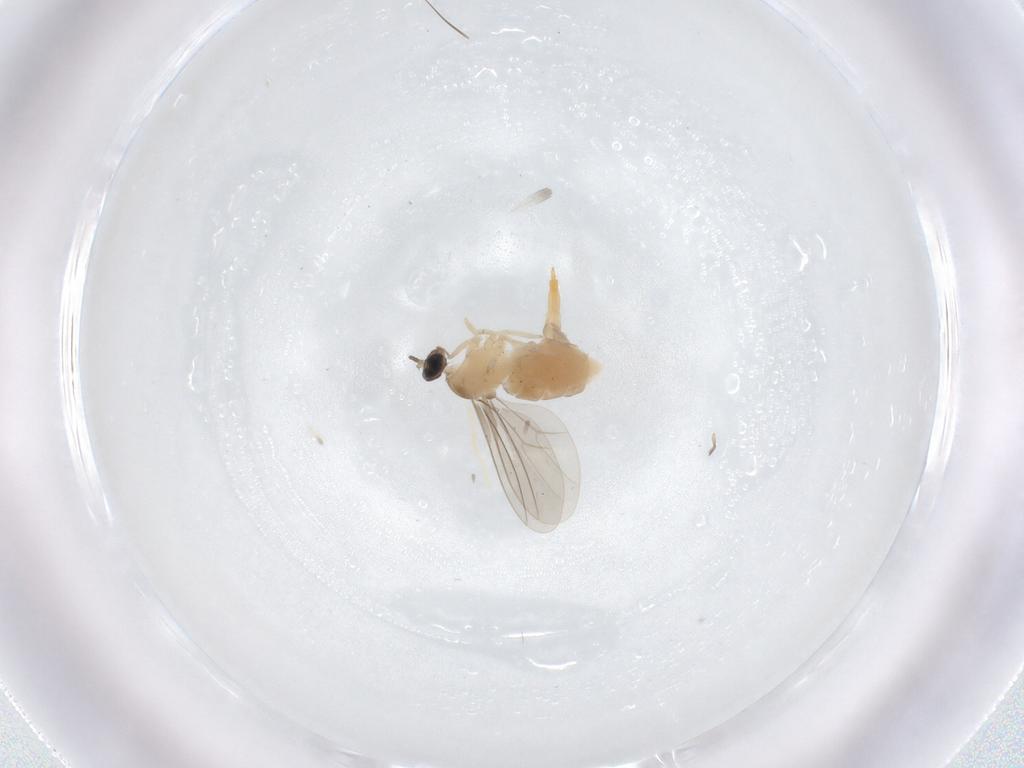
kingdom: Animalia
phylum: Arthropoda
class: Insecta
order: Diptera
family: Cecidomyiidae
